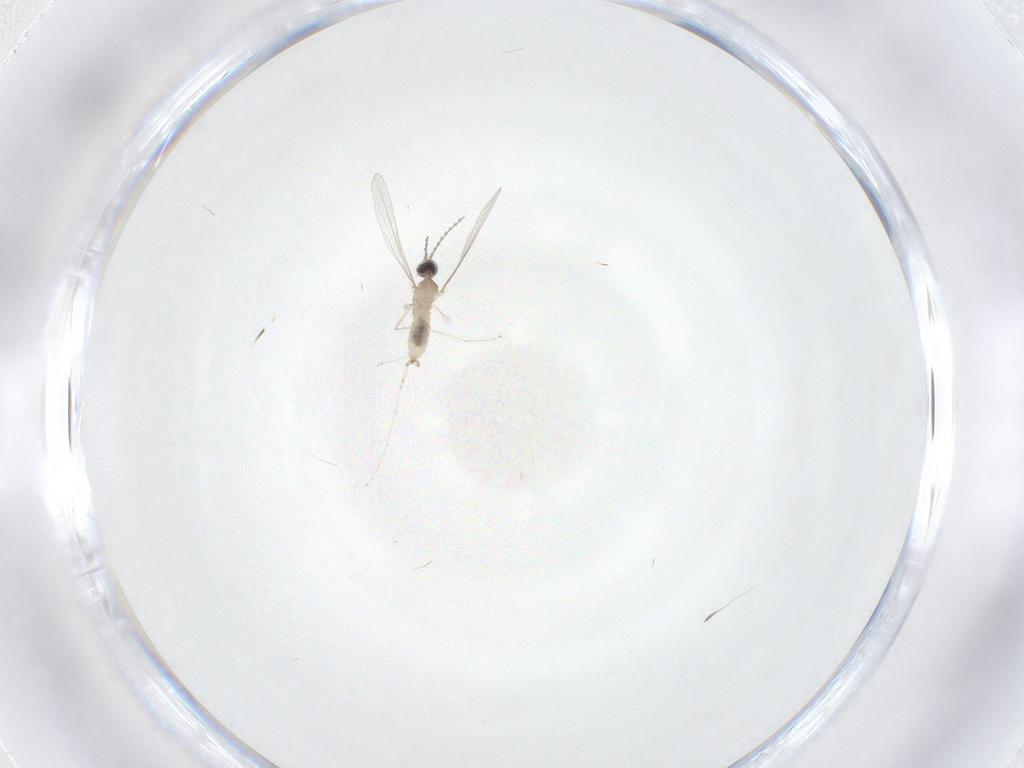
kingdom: Animalia
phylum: Arthropoda
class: Insecta
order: Diptera
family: Cecidomyiidae
